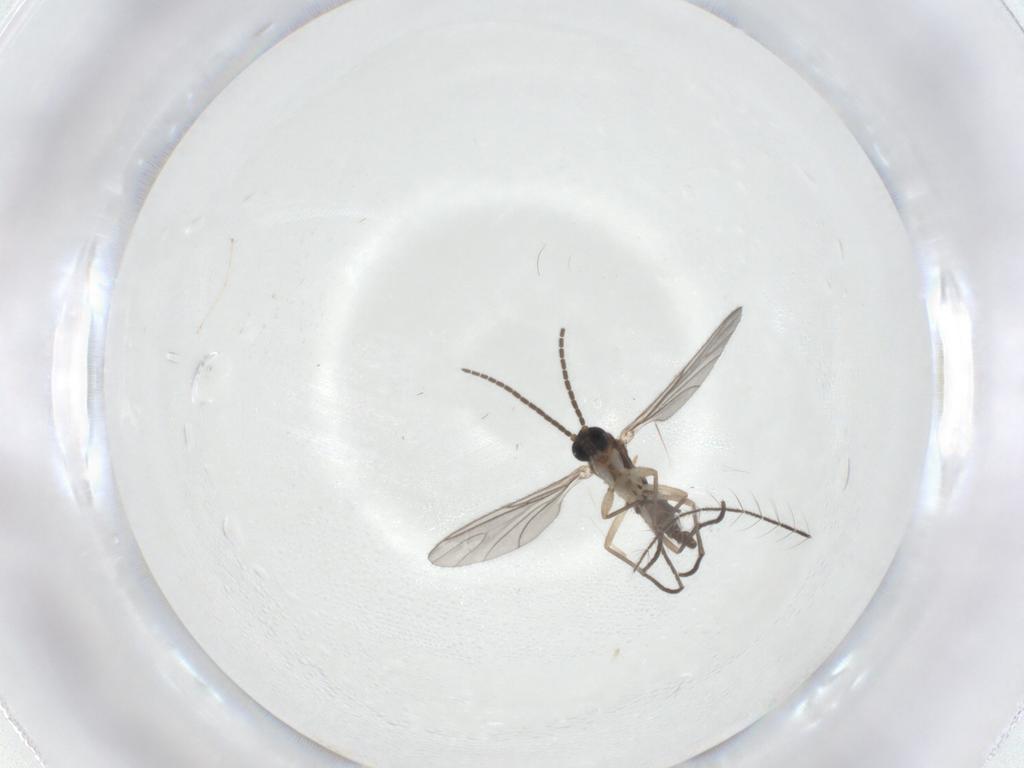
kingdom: Animalia
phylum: Arthropoda
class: Insecta
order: Diptera
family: Sciaridae
